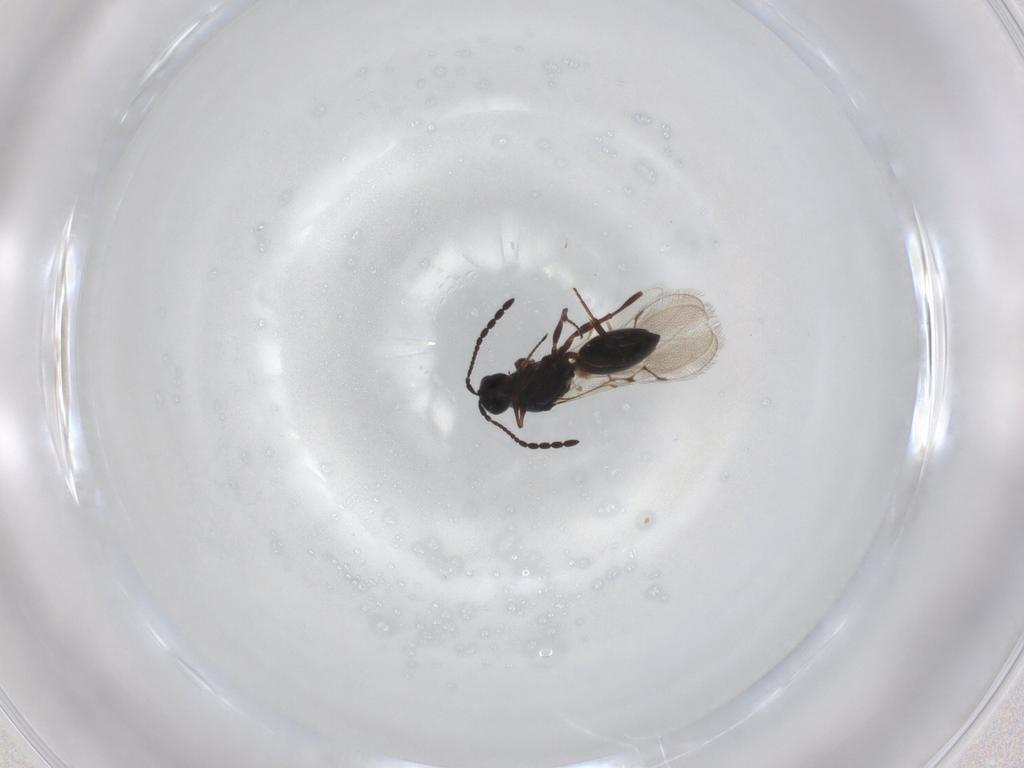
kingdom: Animalia
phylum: Arthropoda
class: Insecta
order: Hymenoptera
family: Figitidae
